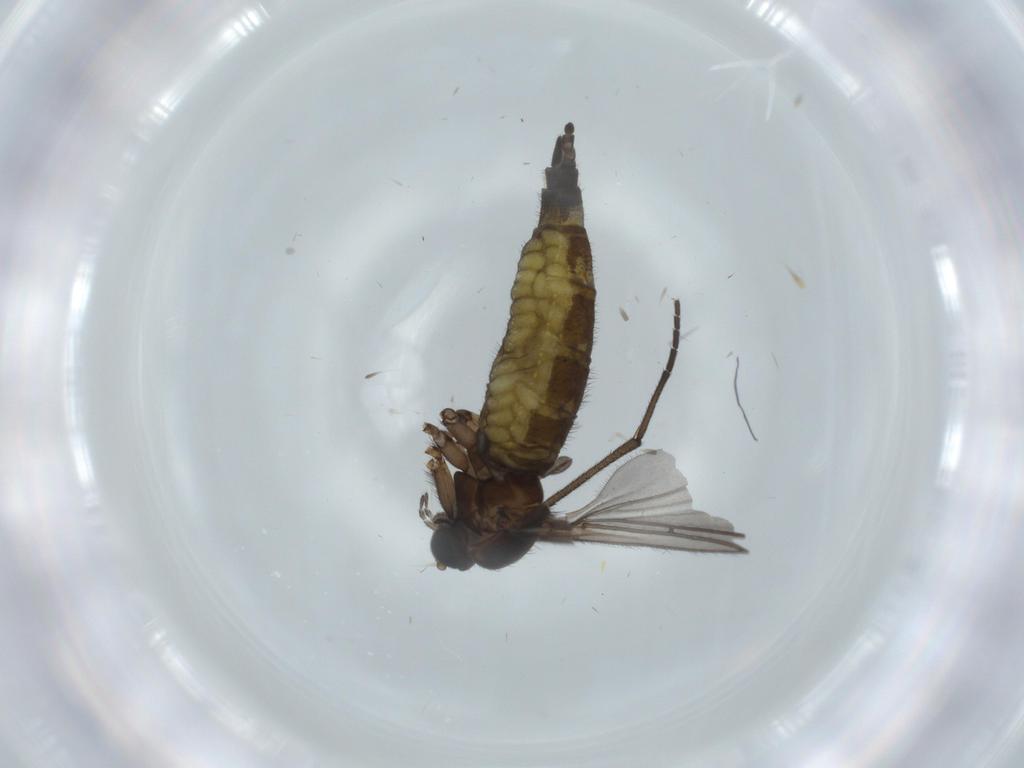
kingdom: Animalia
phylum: Arthropoda
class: Insecta
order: Diptera
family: Sciaridae
